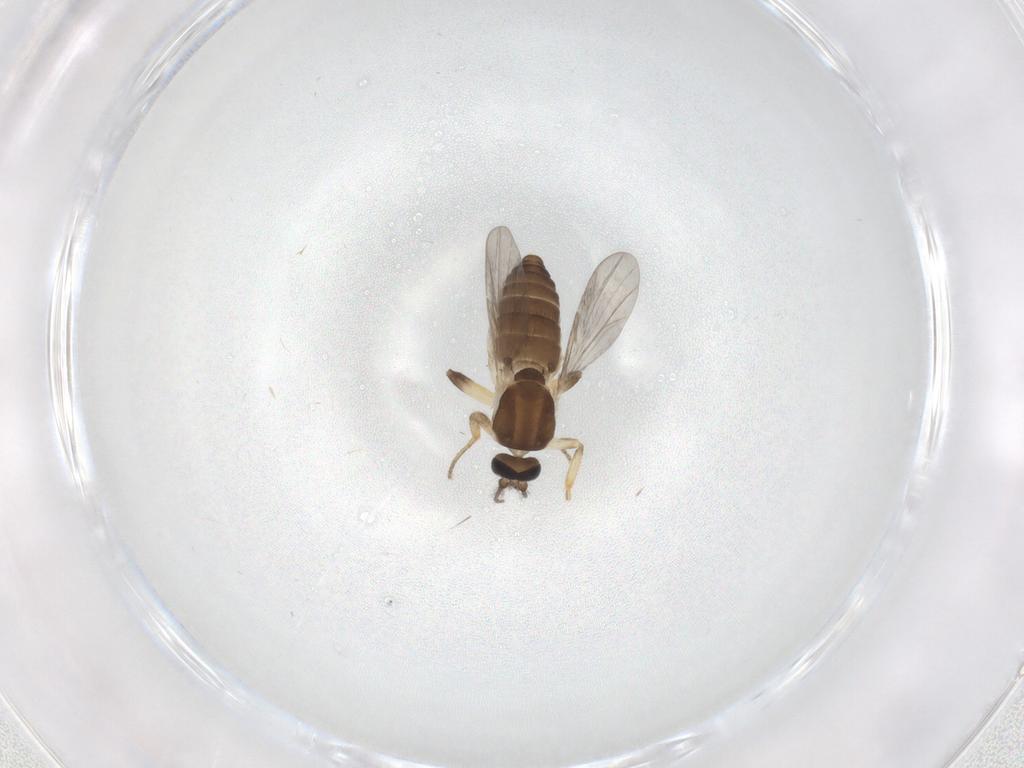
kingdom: Animalia
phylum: Arthropoda
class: Insecta
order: Diptera
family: Ceratopogonidae
